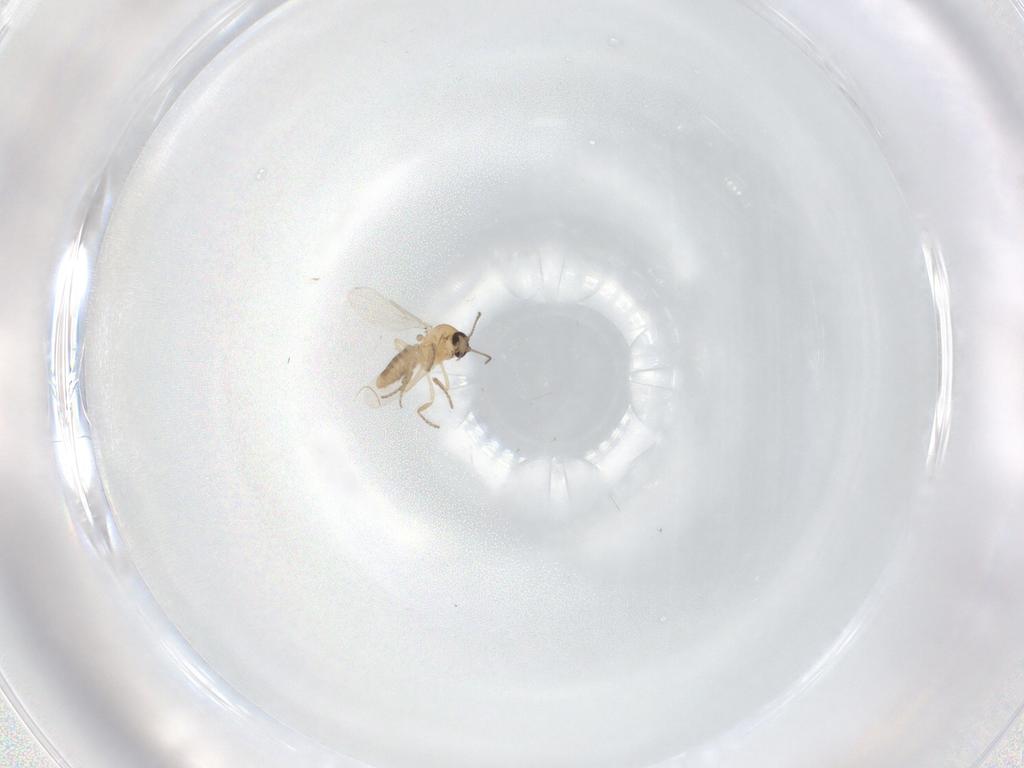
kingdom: Animalia
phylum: Arthropoda
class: Insecta
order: Diptera
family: Ceratopogonidae
